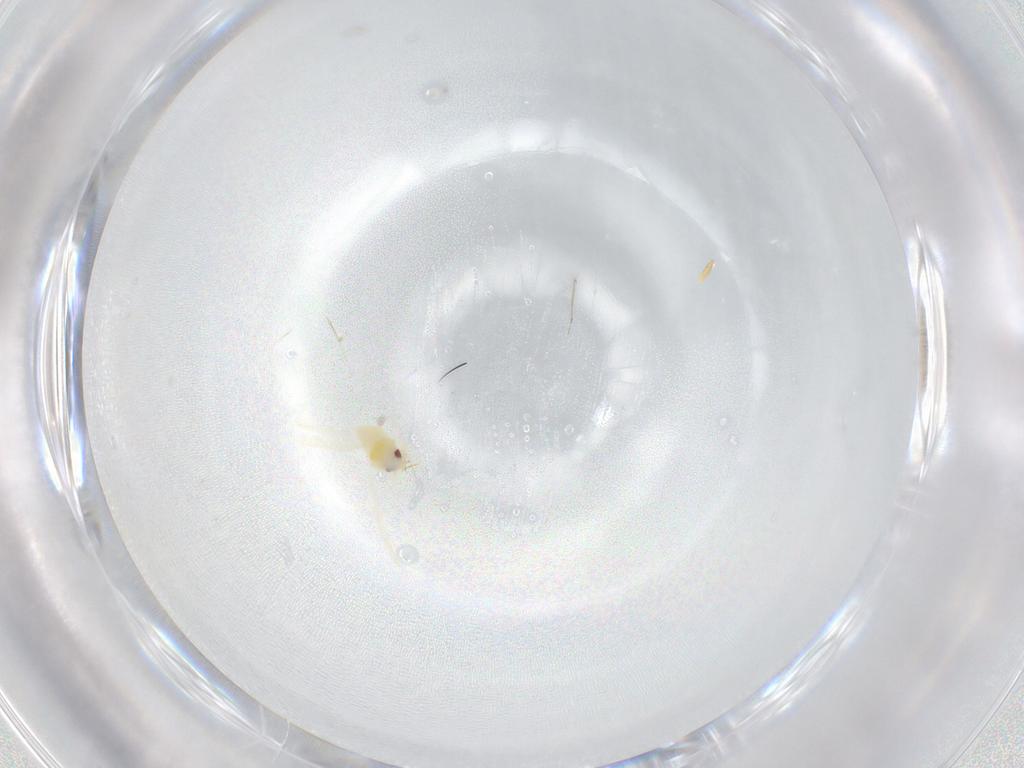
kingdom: Animalia
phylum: Arthropoda
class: Insecta
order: Hemiptera
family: Aleyrodidae
